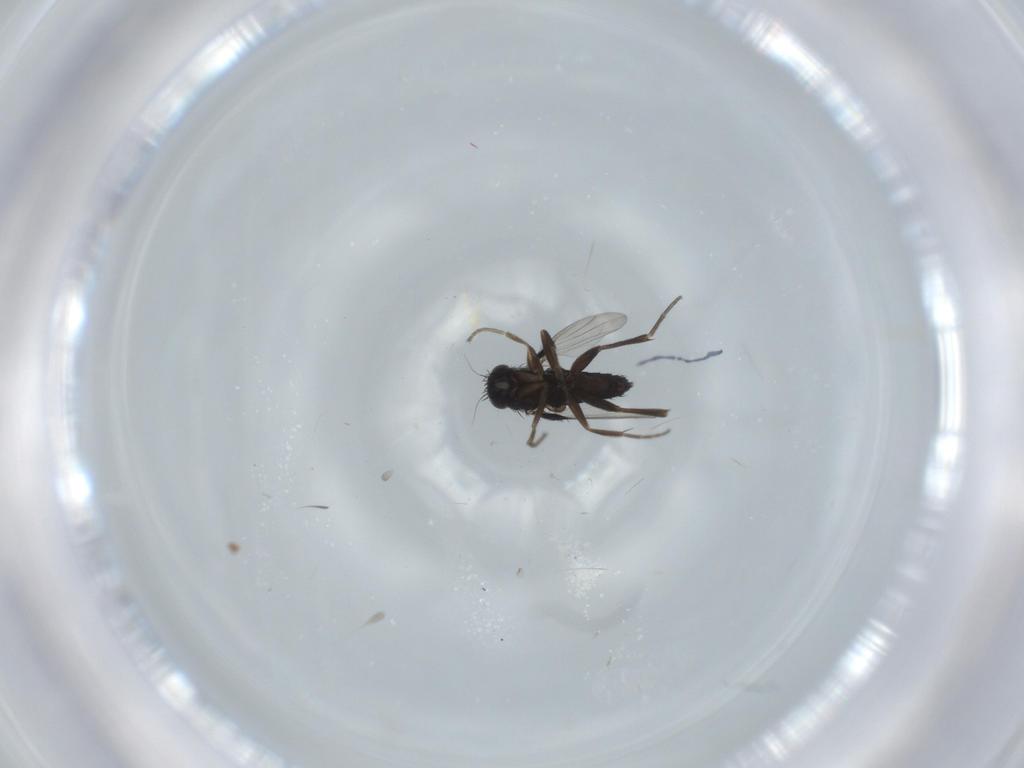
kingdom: Animalia
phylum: Arthropoda
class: Insecta
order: Diptera
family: Phoridae
